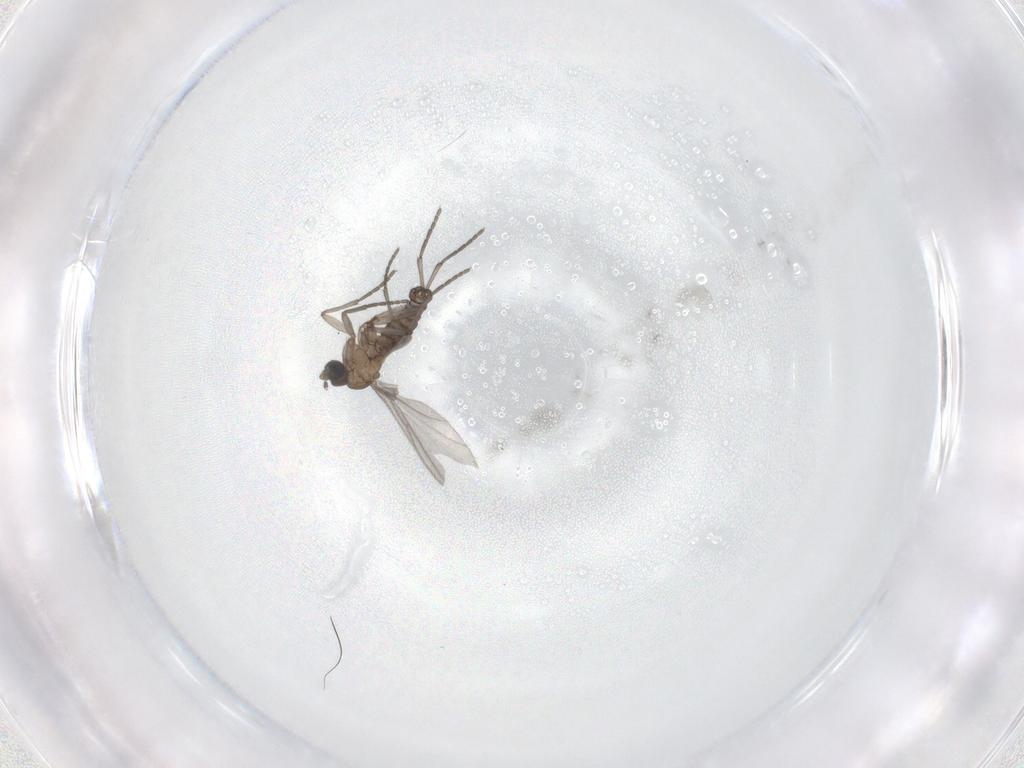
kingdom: Animalia
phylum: Arthropoda
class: Insecta
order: Diptera
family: Sciaridae
